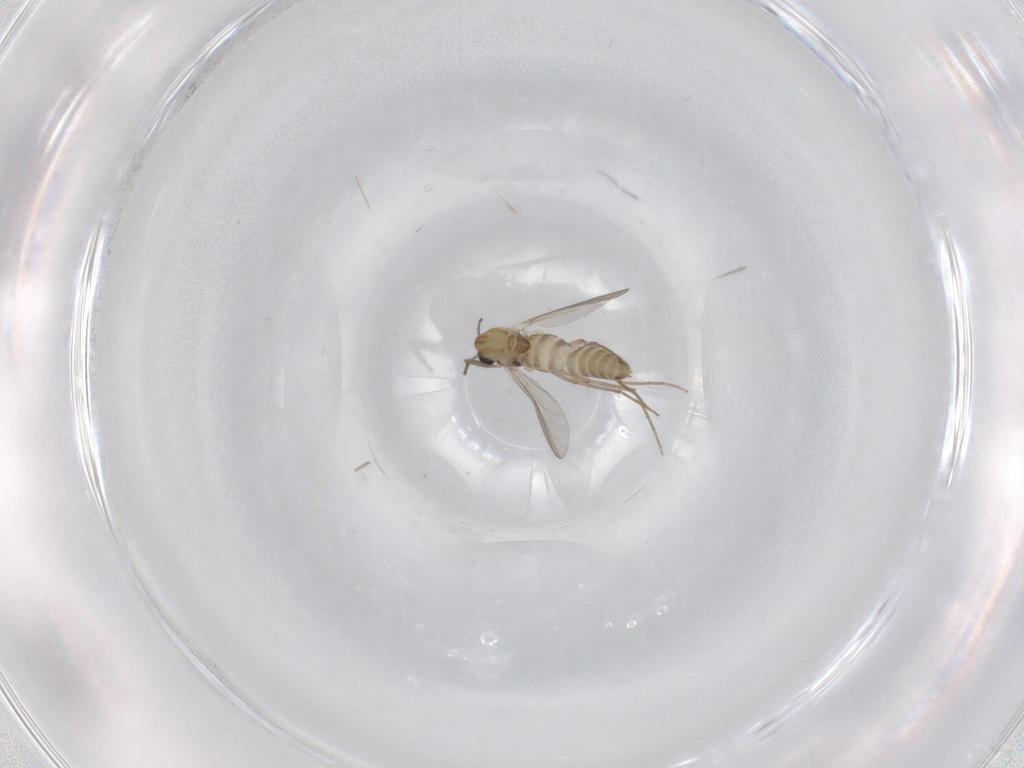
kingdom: Animalia
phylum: Arthropoda
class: Insecta
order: Diptera
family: Chironomidae
